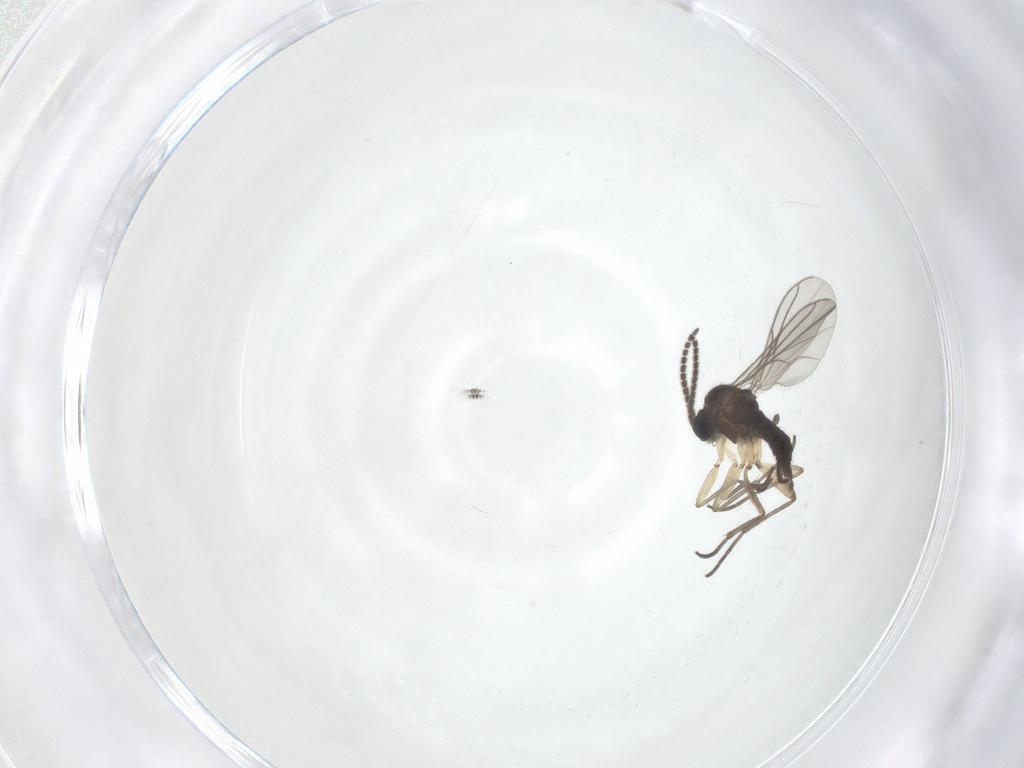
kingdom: Animalia
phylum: Arthropoda
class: Insecta
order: Diptera
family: Sciaridae
